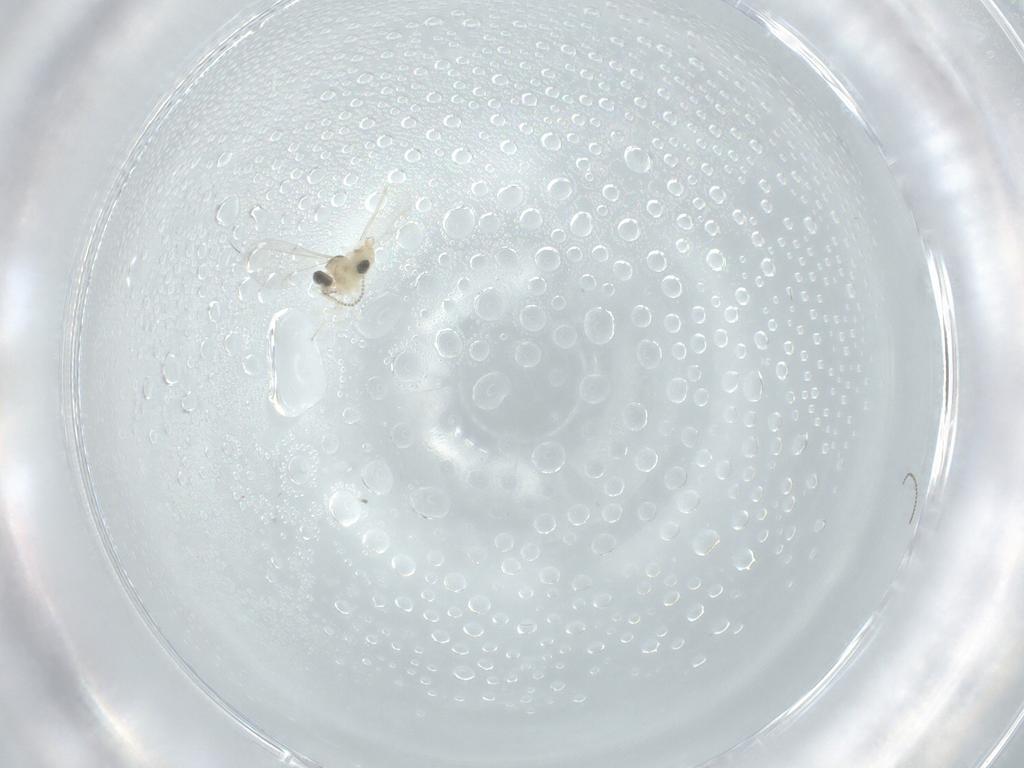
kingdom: Animalia
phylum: Arthropoda
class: Insecta
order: Diptera
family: Cecidomyiidae
